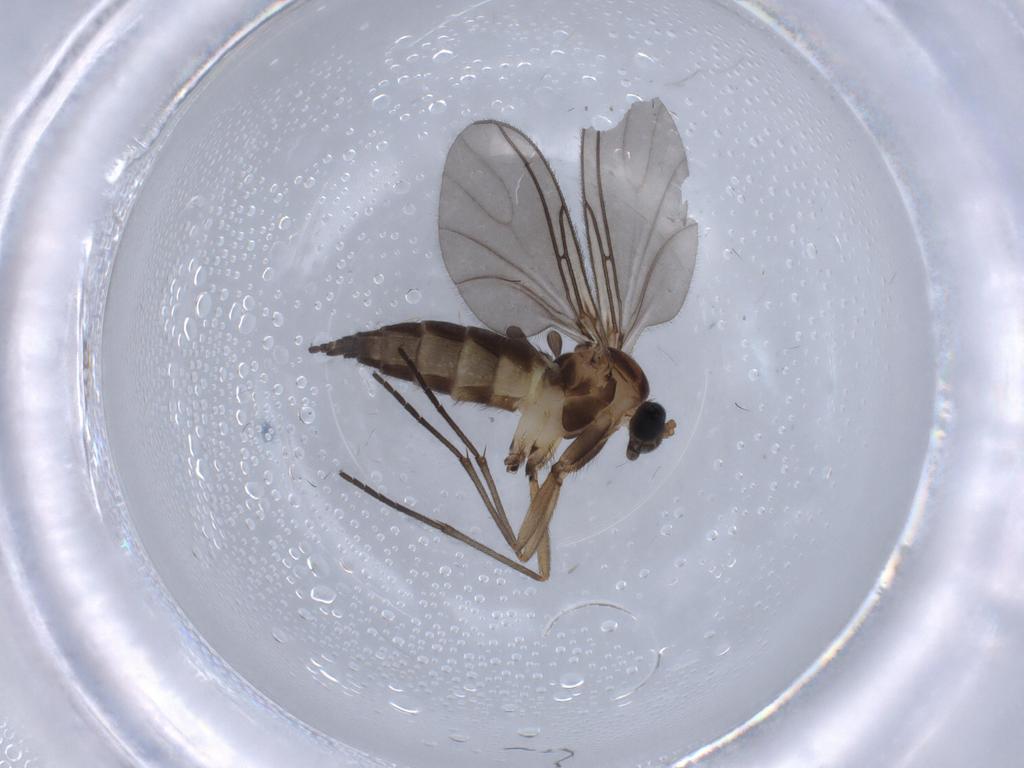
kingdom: Animalia
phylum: Arthropoda
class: Insecta
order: Diptera
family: Sciaridae
